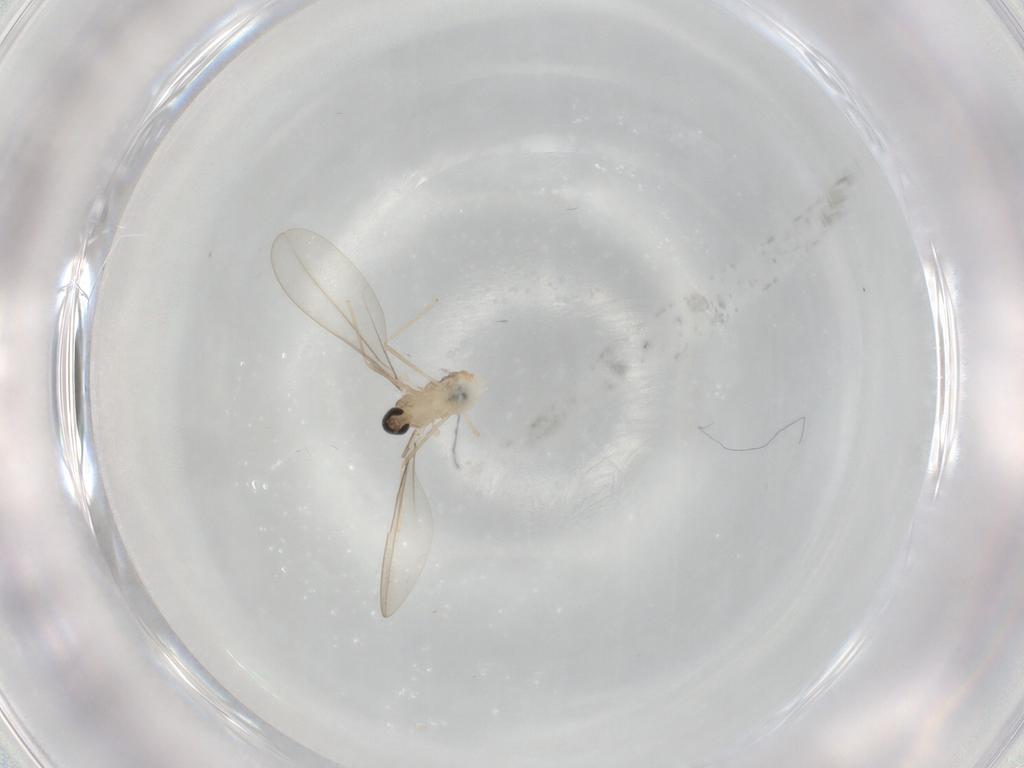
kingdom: Animalia
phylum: Arthropoda
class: Insecta
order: Diptera
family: Cecidomyiidae
